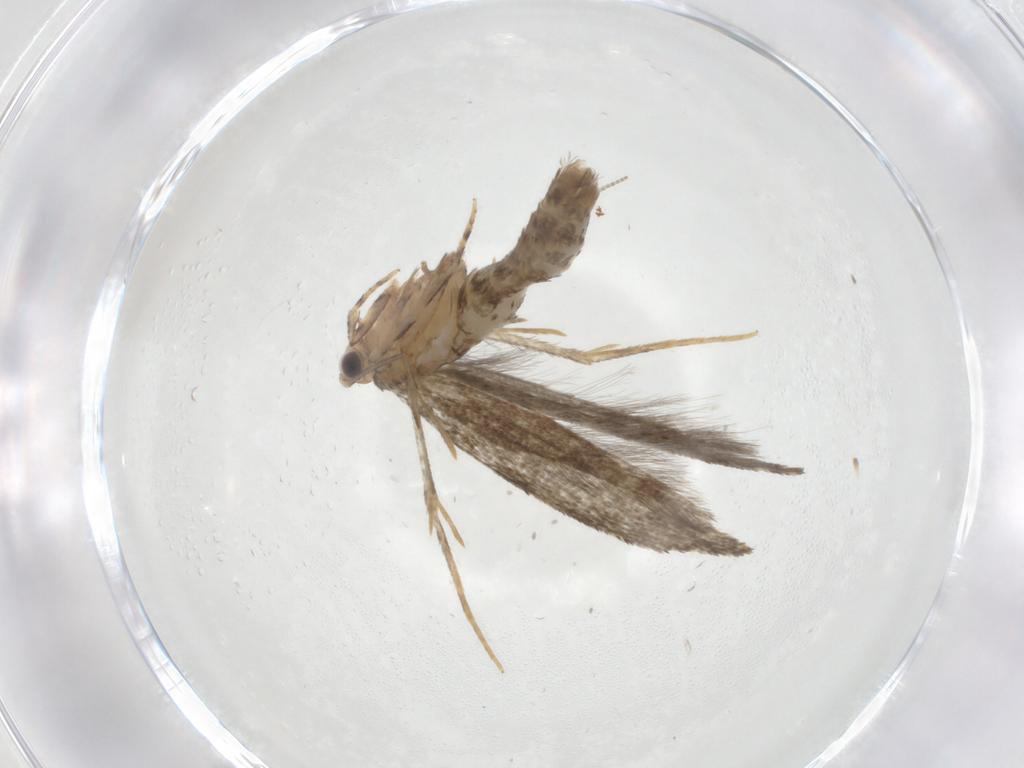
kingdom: Animalia
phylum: Arthropoda
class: Insecta
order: Lepidoptera
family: Tineidae
